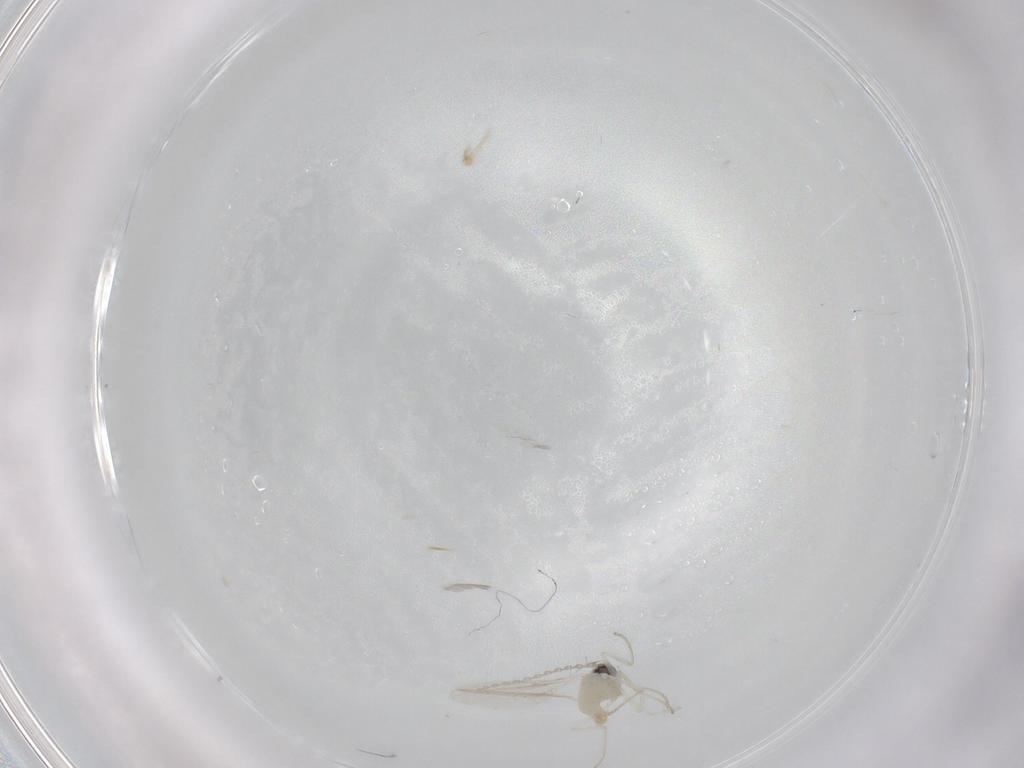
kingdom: Animalia
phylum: Arthropoda
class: Insecta
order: Diptera
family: Cecidomyiidae
